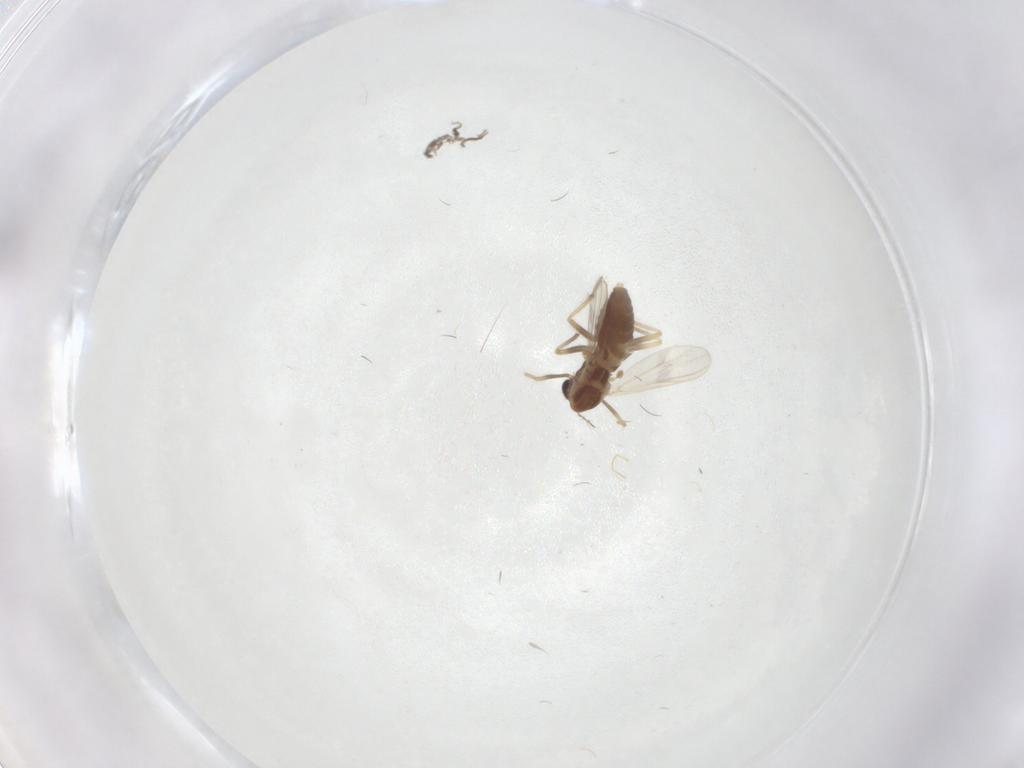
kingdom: Animalia
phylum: Arthropoda
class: Insecta
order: Diptera
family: Chironomidae
